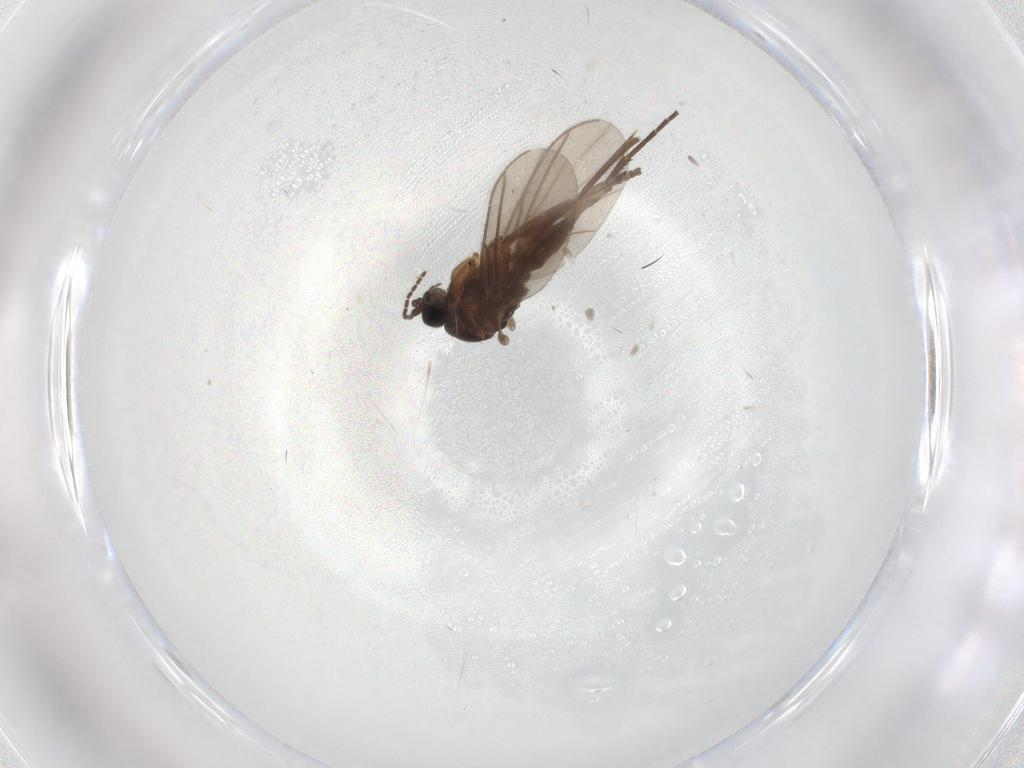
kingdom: Animalia
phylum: Arthropoda
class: Insecta
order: Diptera
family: Sciaridae
